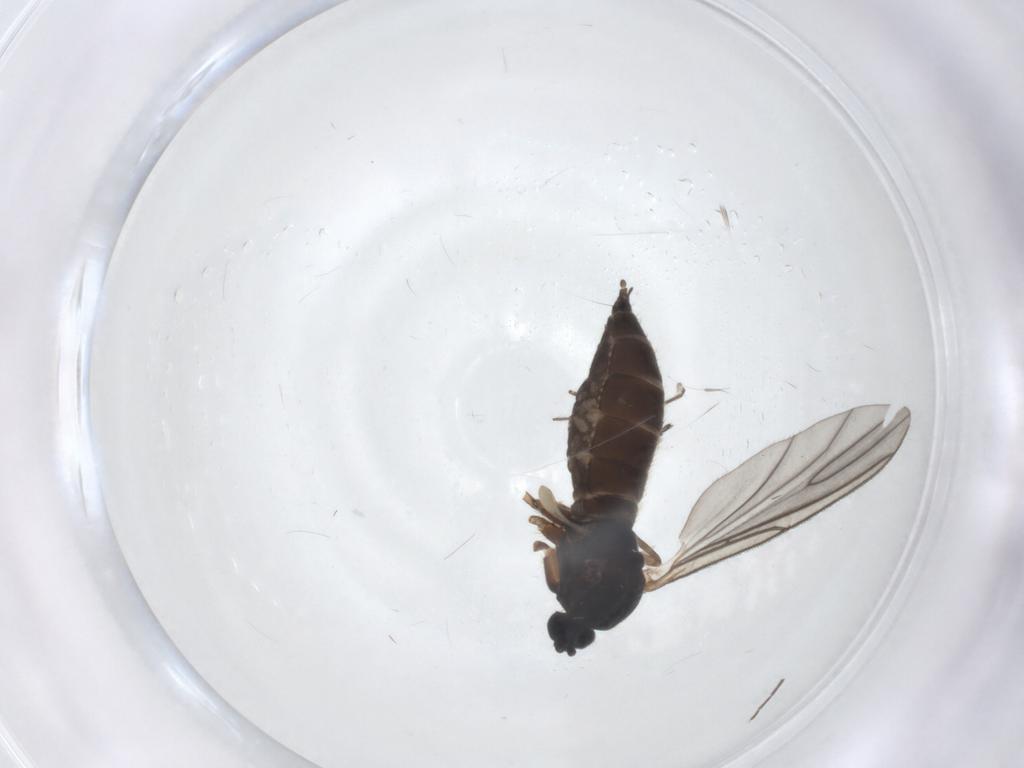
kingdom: Animalia
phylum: Arthropoda
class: Insecta
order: Diptera
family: Sciaridae
